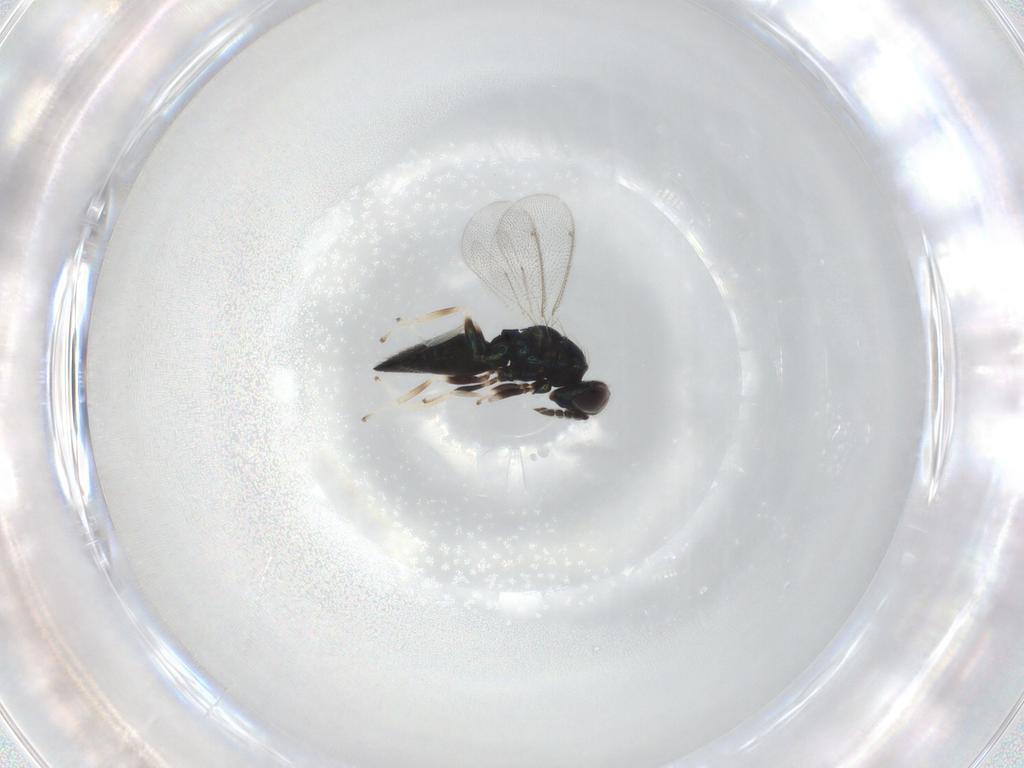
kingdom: Animalia
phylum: Arthropoda
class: Insecta
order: Hymenoptera
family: Eulophidae
